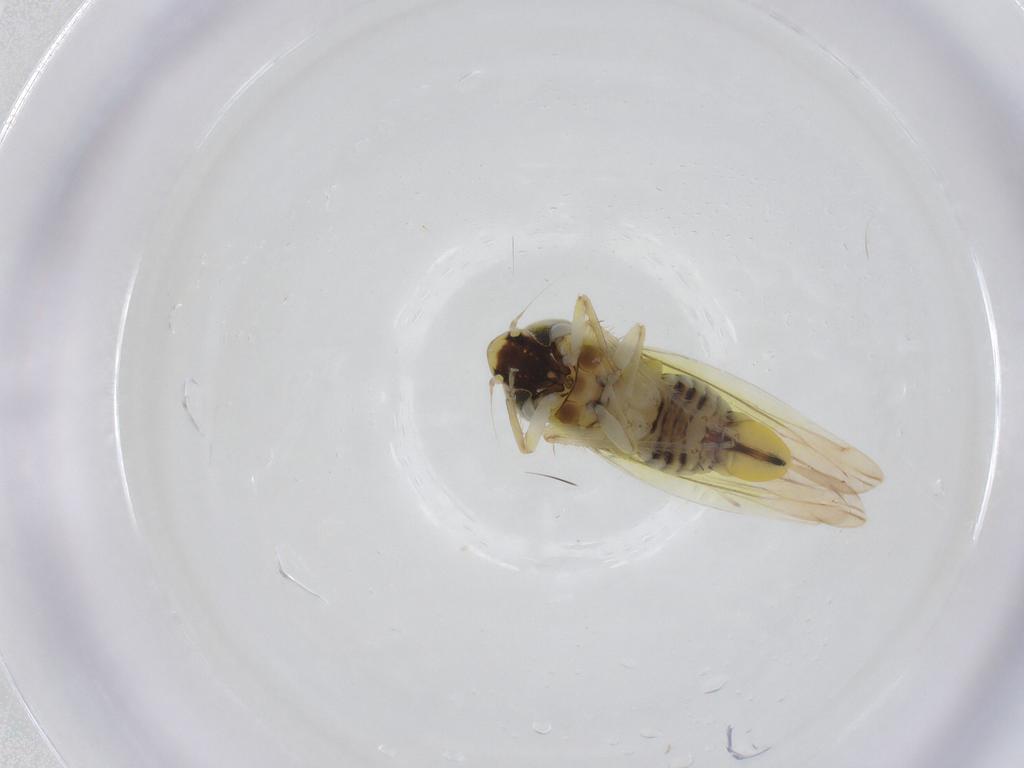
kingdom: Animalia
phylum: Arthropoda
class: Insecta
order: Hemiptera
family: Cicadellidae
